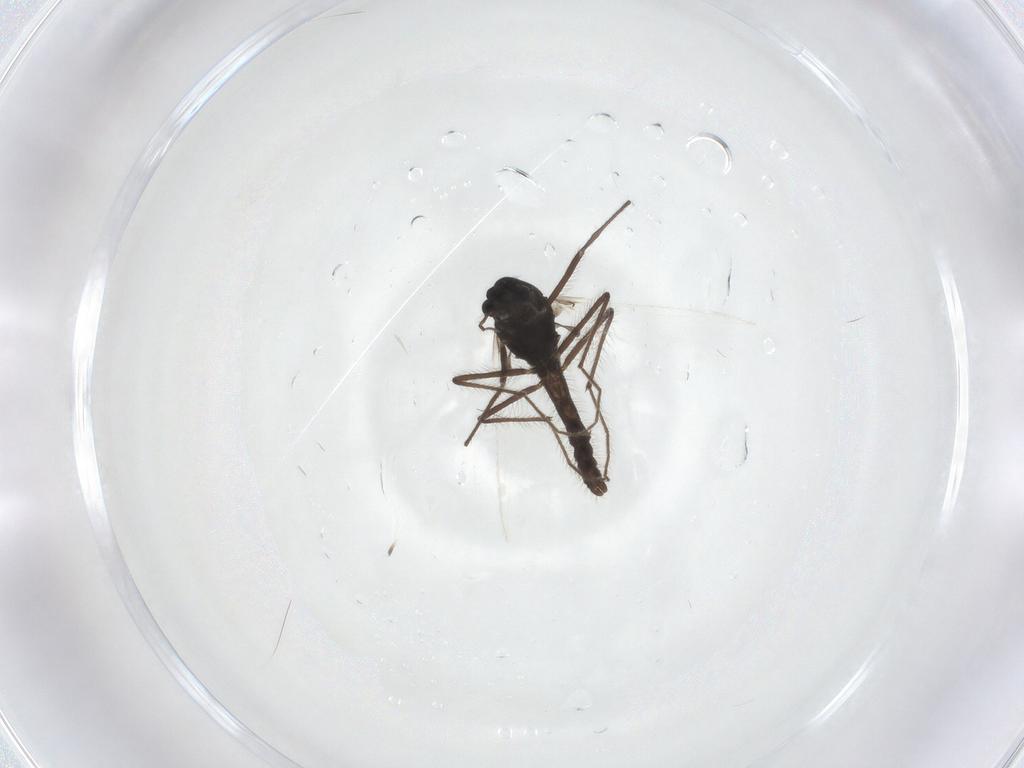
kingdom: Animalia
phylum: Arthropoda
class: Insecta
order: Diptera
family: Chironomidae
